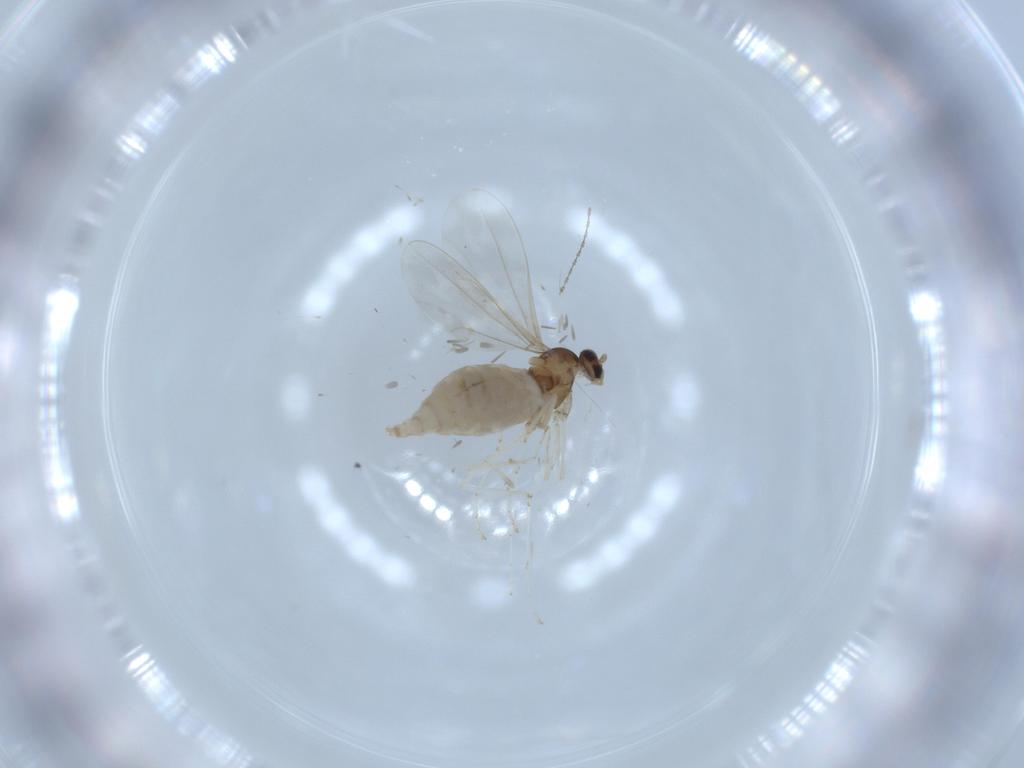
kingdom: Animalia
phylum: Arthropoda
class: Insecta
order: Diptera
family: Cecidomyiidae
